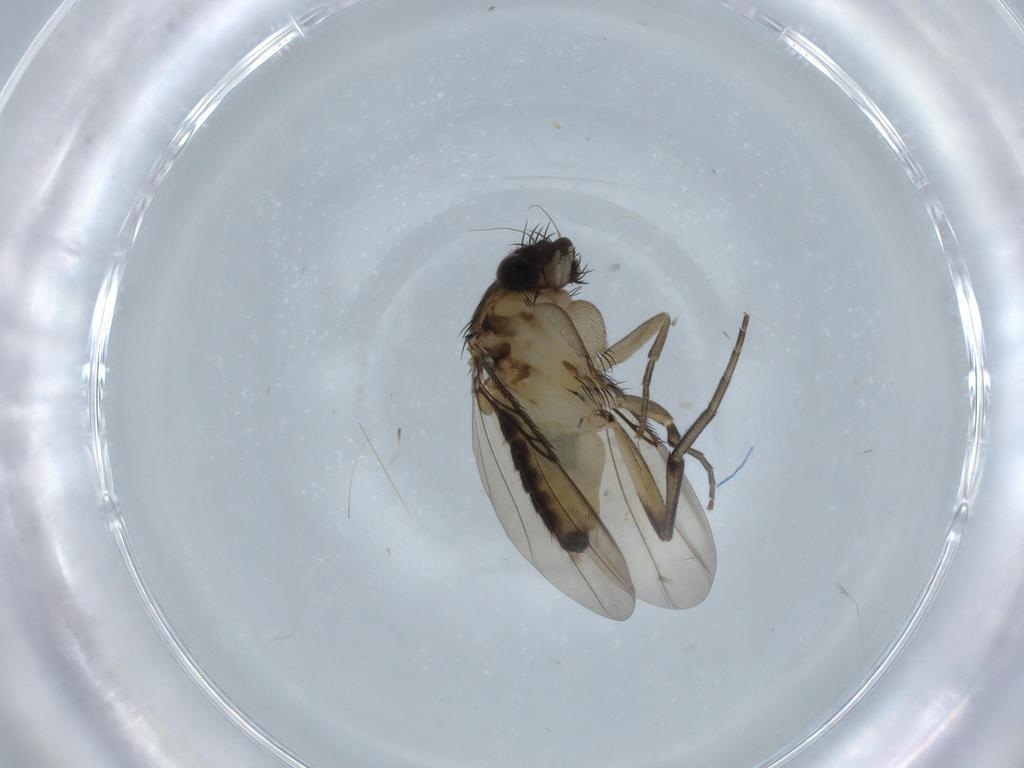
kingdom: Animalia
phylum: Arthropoda
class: Insecta
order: Diptera
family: Cecidomyiidae
